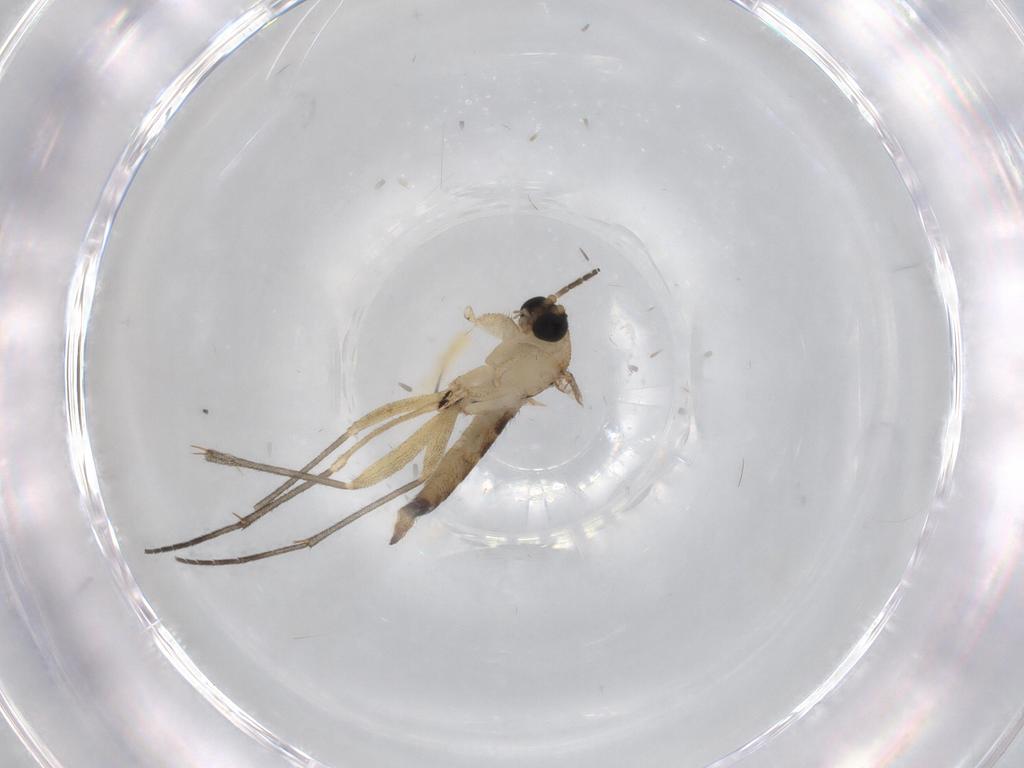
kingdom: Animalia
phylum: Arthropoda
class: Insecta
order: Diptera
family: Sciaridae
